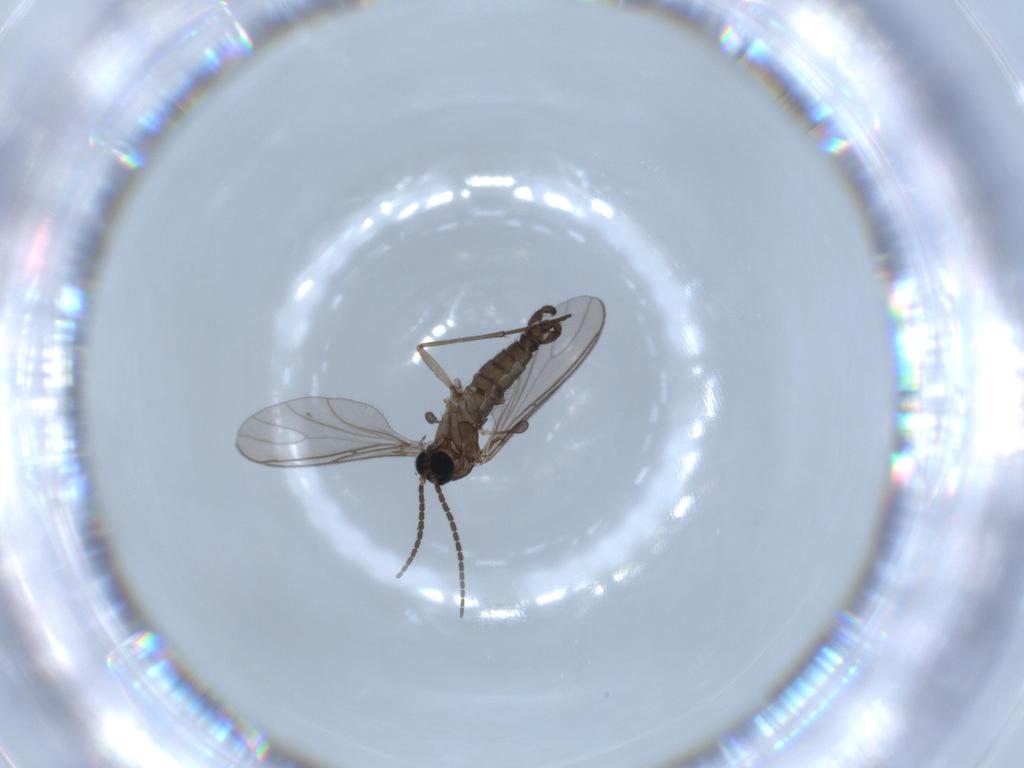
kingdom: Animalia
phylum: Arthropoda
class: Insecta
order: Diptera
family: Sciaridae
